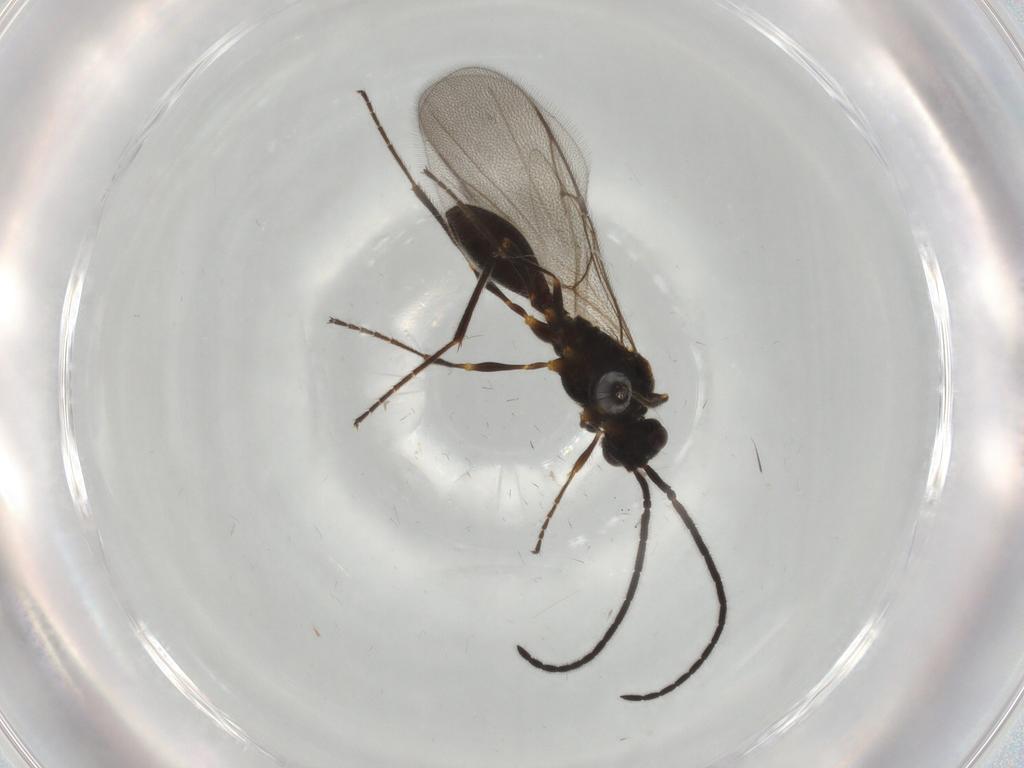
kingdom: Animalia
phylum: Arthropoda
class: Insecta
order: Hymenoptera
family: Diapriidae
